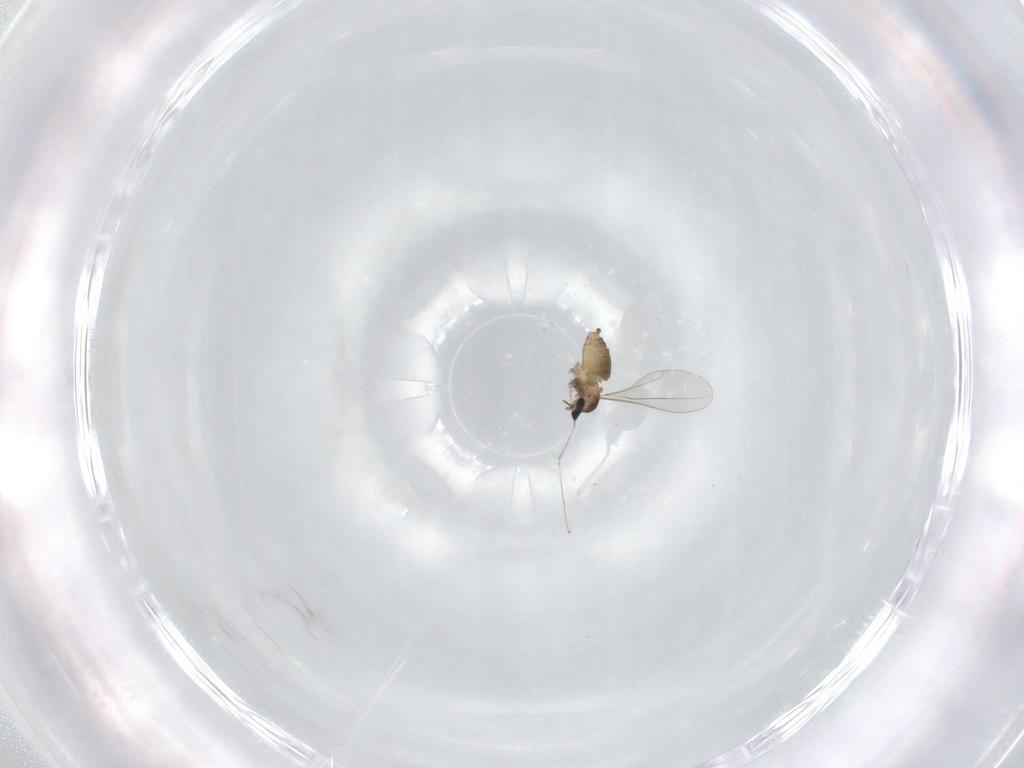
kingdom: Animalia
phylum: Arthropoda
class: Insecta
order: Diptera
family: Cecidomyiidae
